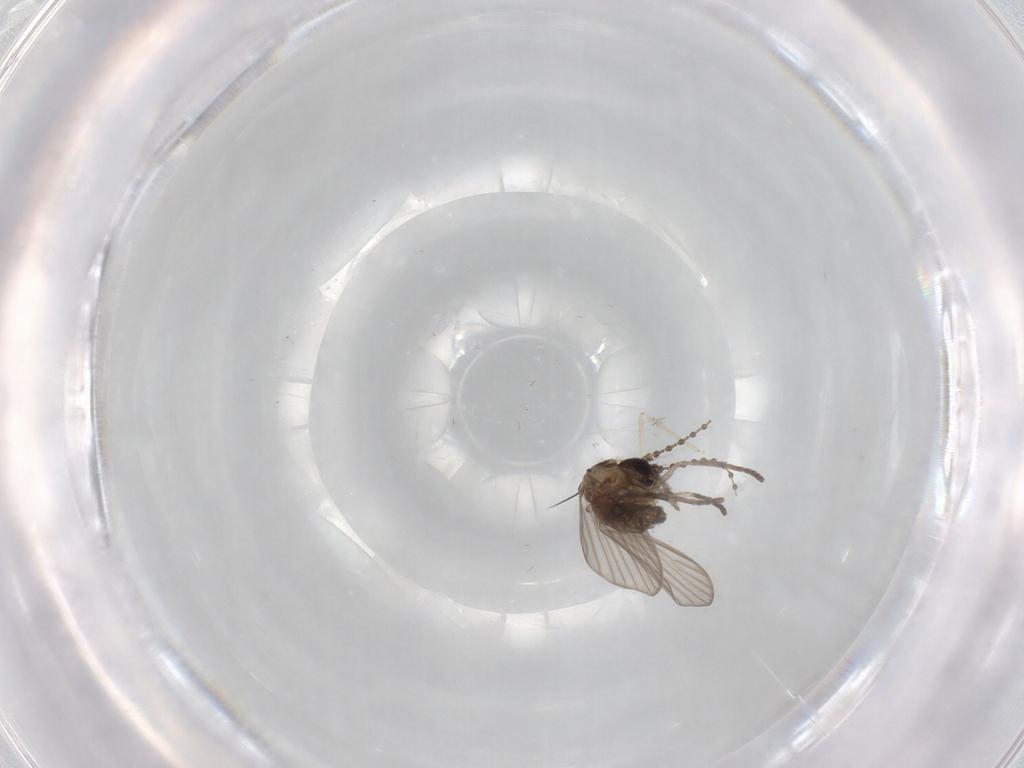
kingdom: Animalia
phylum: Arthropoda
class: Insecta
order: Diptera
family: Psychodidae
